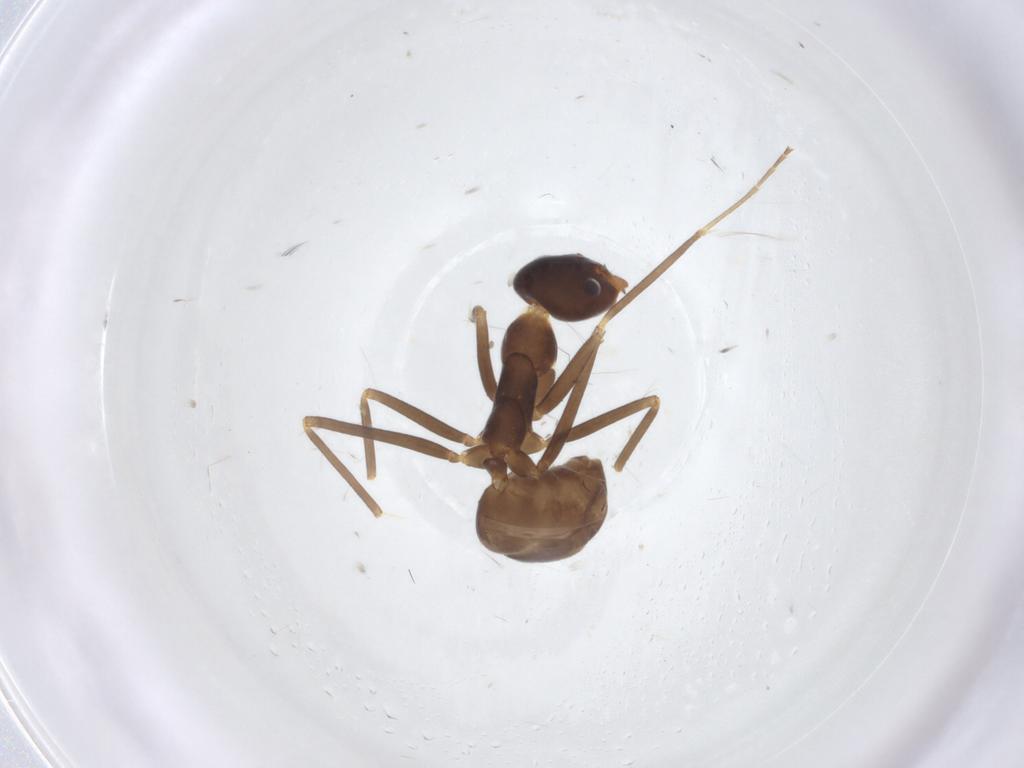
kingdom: Animalia
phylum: Arthropoda
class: Insecta
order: Hymenoptera
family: Formicidae
